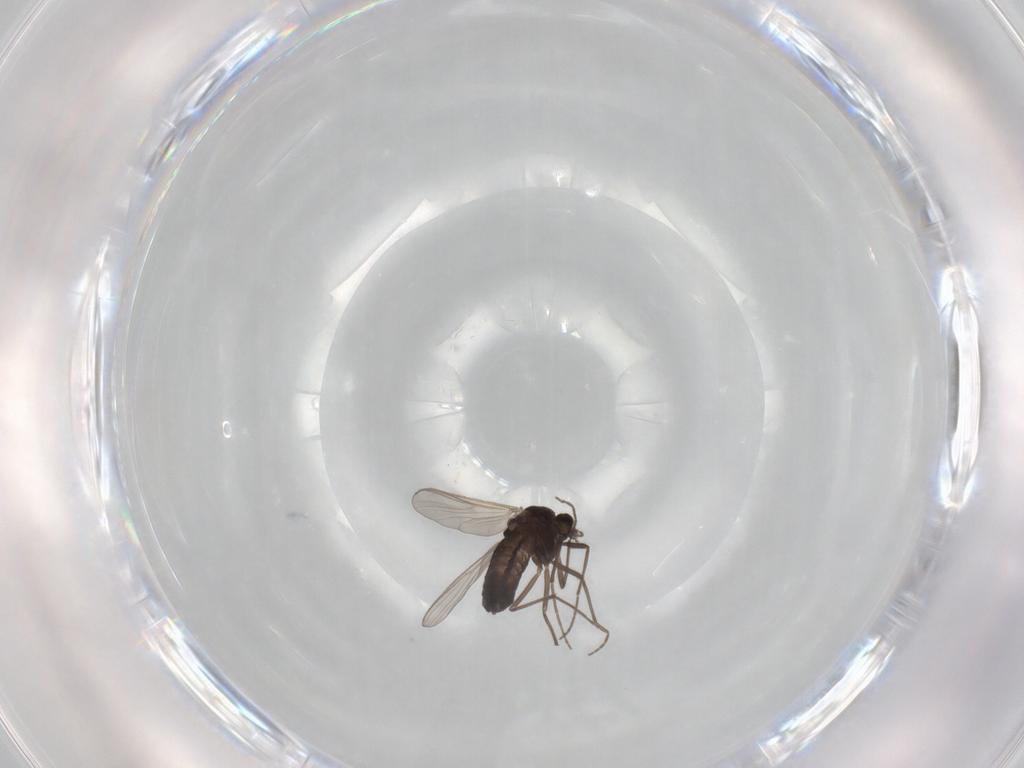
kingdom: Animalia
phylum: Arthropoda
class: Insecta
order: Diptera
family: Chironomidae
